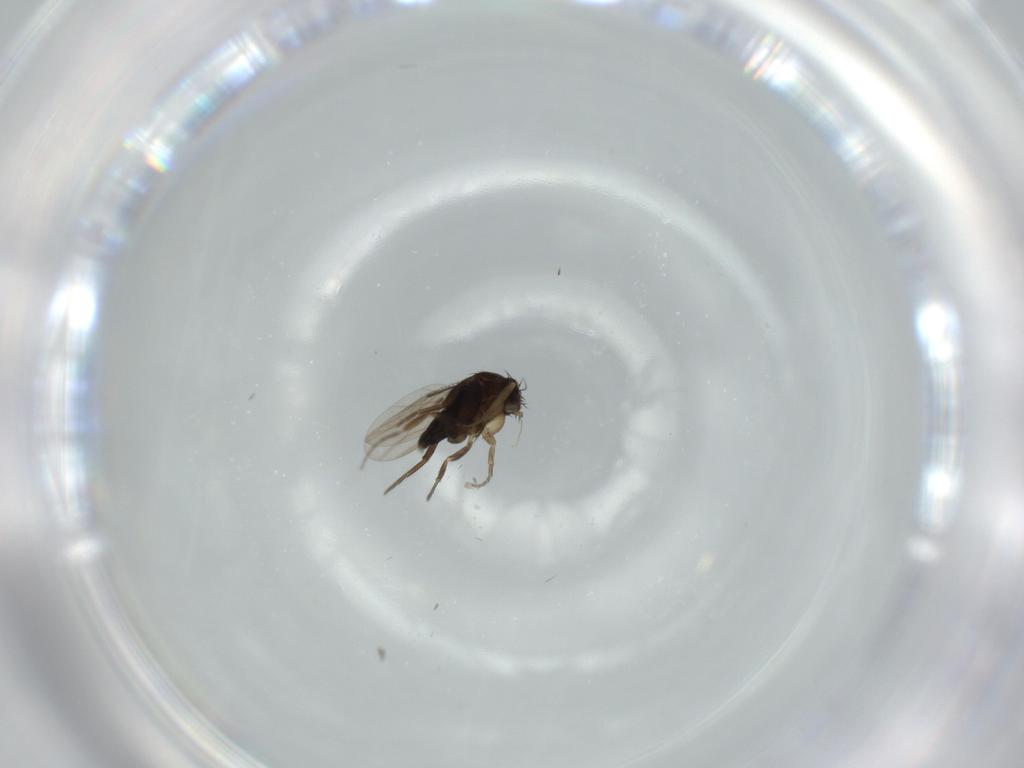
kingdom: Animalia
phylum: Arthropoda
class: Insecta
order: Diptera
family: Phoridae
